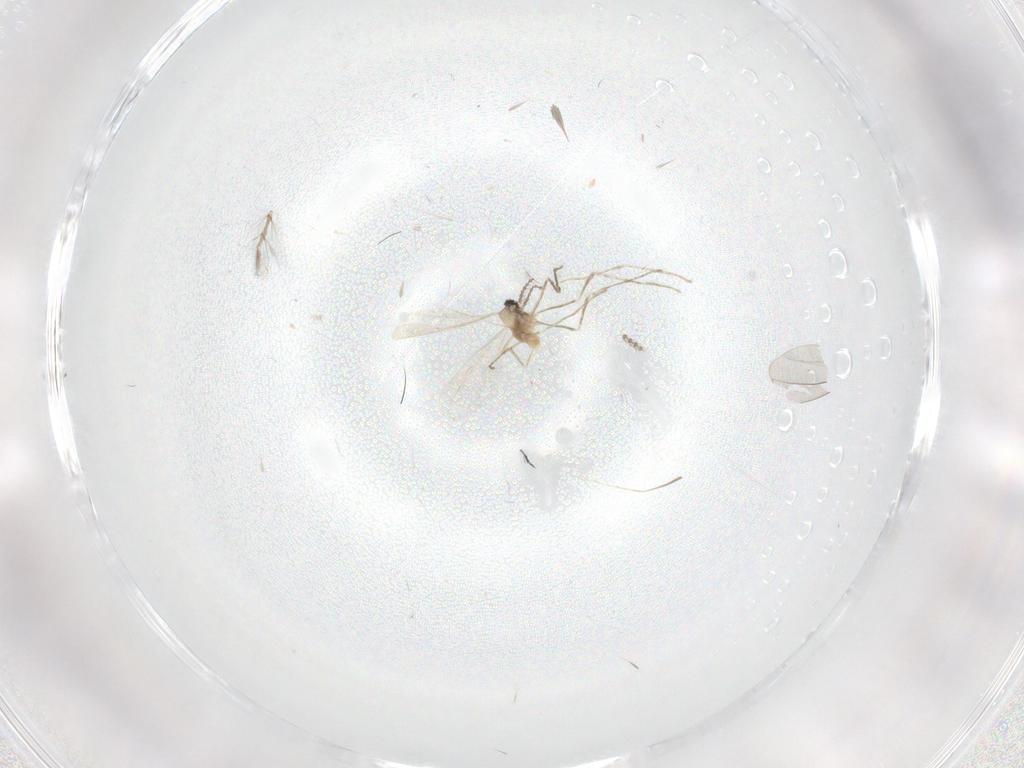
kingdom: Animalia
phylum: Arthropoda
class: Insecta
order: Diptera
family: Cecidomyiidae
